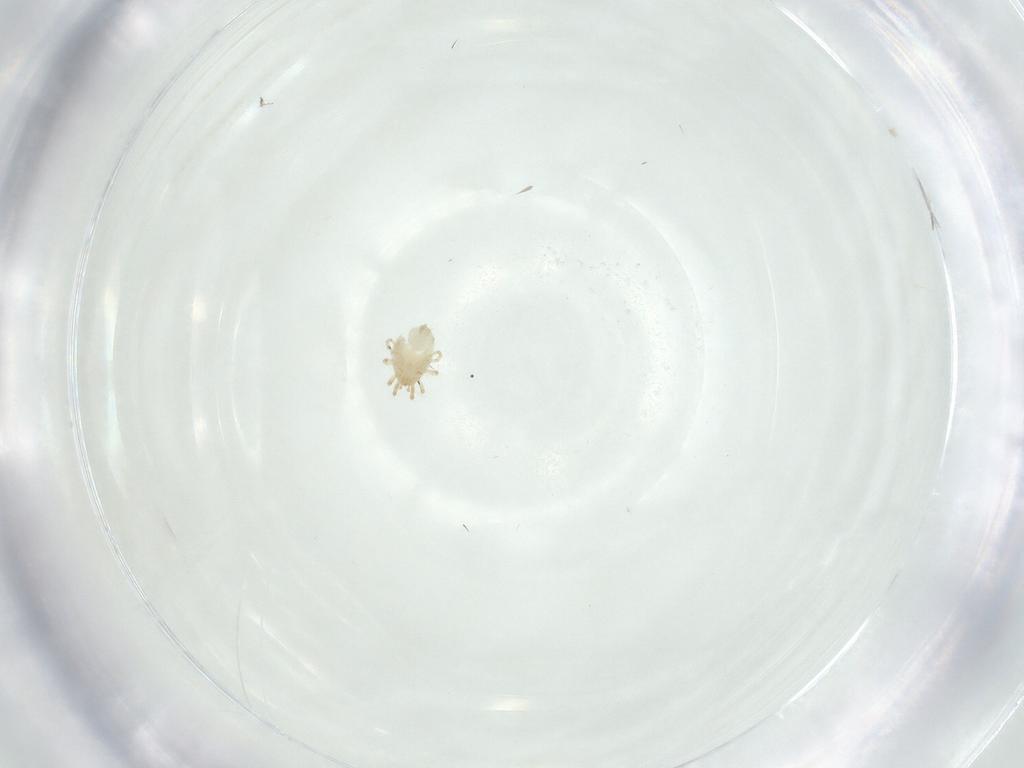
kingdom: Animalia
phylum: Arthropoda
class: Arachnida
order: Mesostigmata
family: Phytoseiidae
